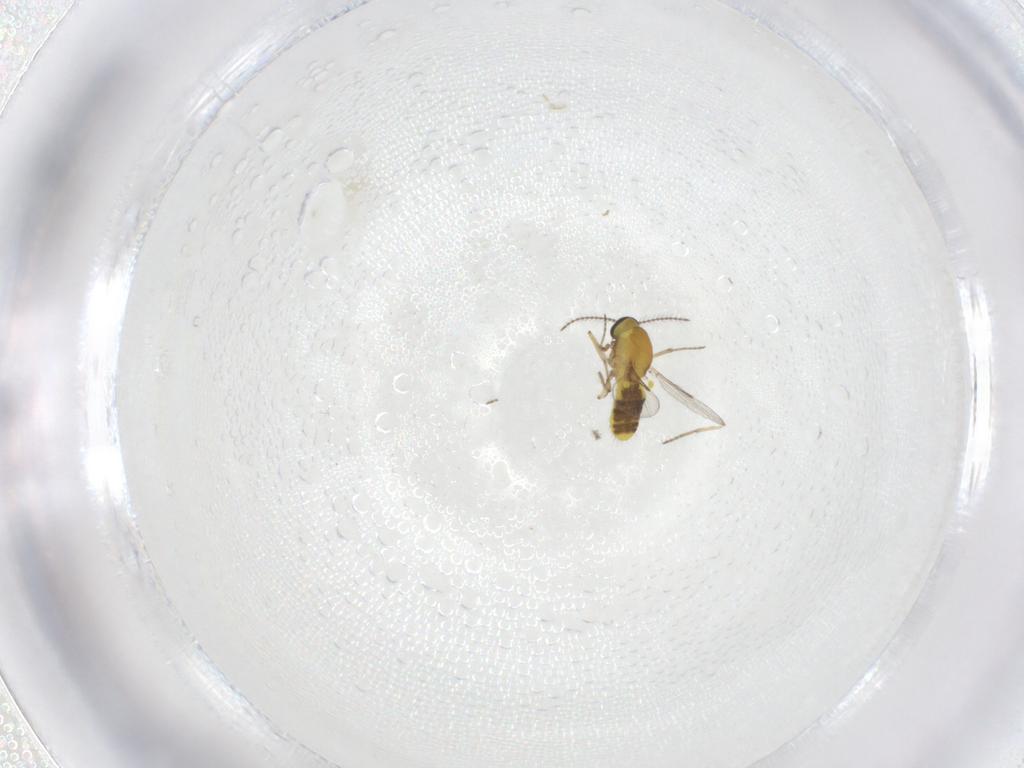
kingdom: Animalia
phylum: Arthropoda
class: Insecta
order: Diptera
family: Ceratopogonidae
